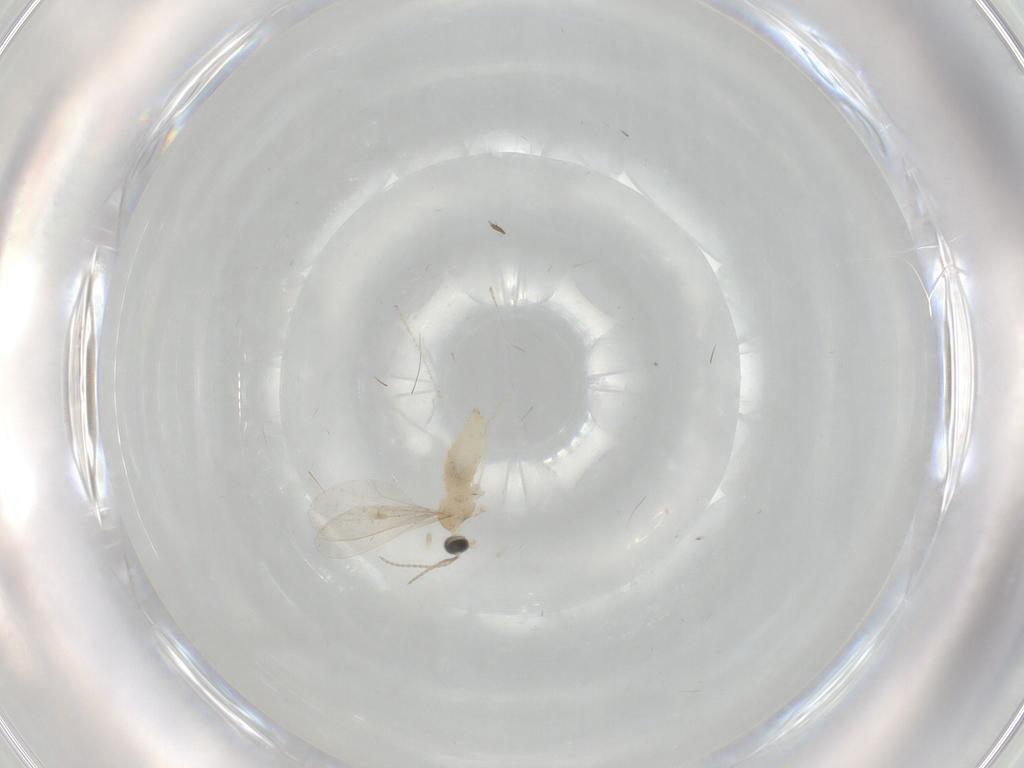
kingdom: Animalia
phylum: Arthropoda
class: Insecta
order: Diptera
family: Phoridae
